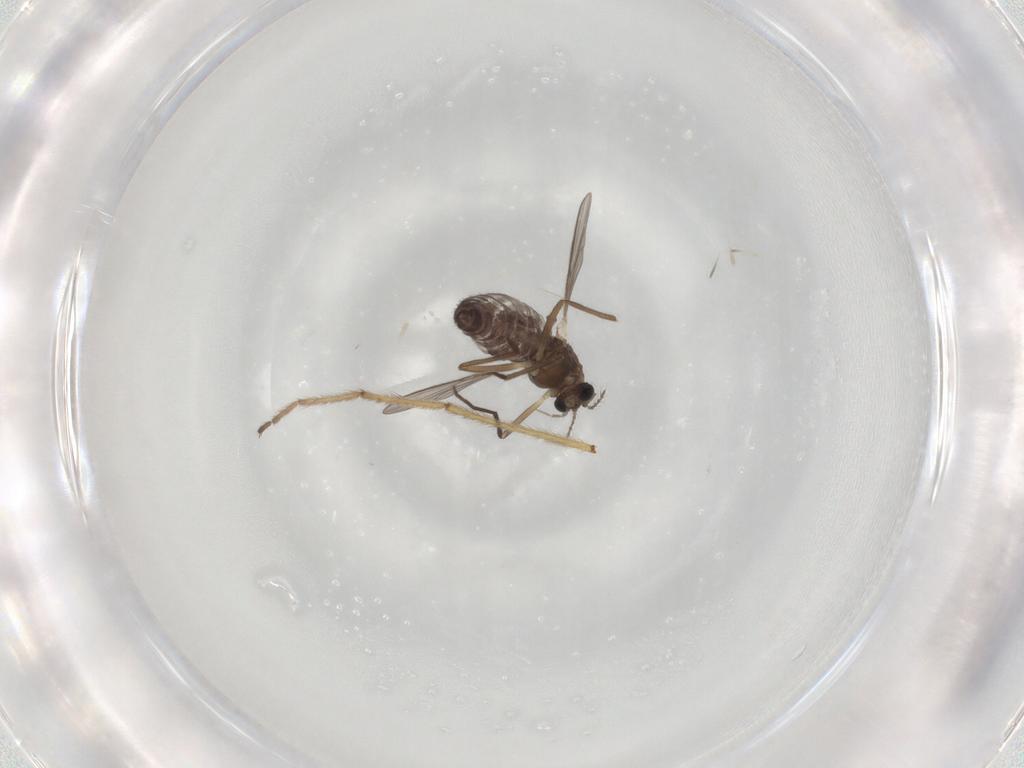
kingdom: Animalia
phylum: Arthropoda
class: Insecta
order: Diptera
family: Chironomidae
